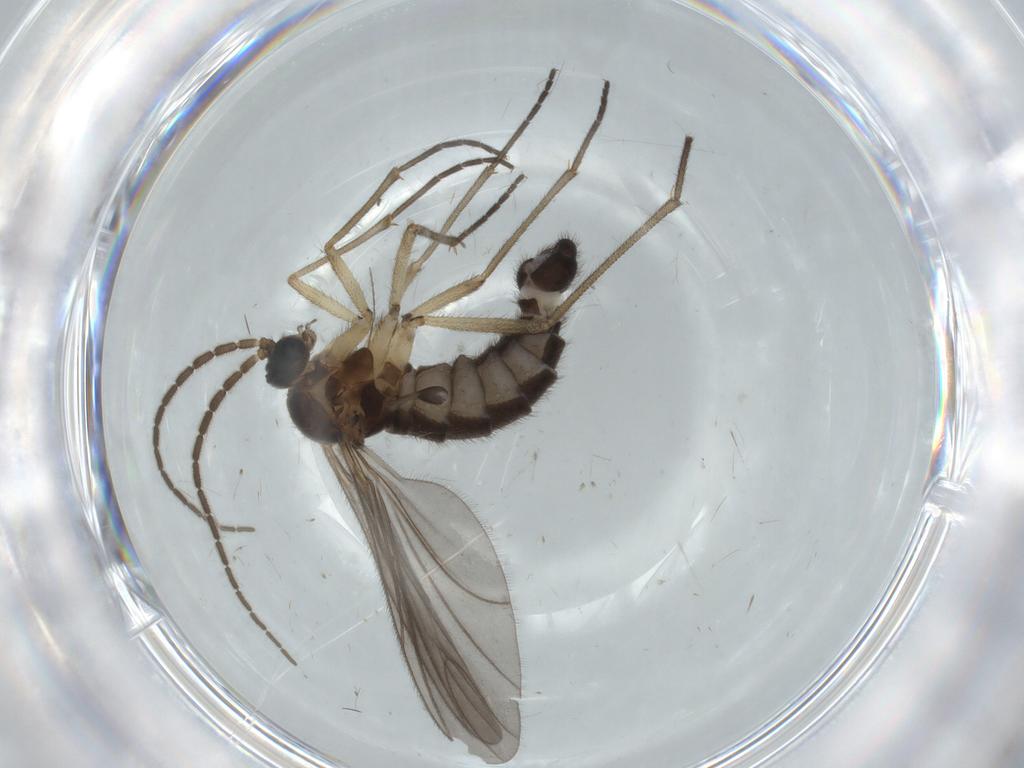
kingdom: Animalia
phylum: Arthropoda
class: Insecta
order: Diptera
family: Sciaridae
